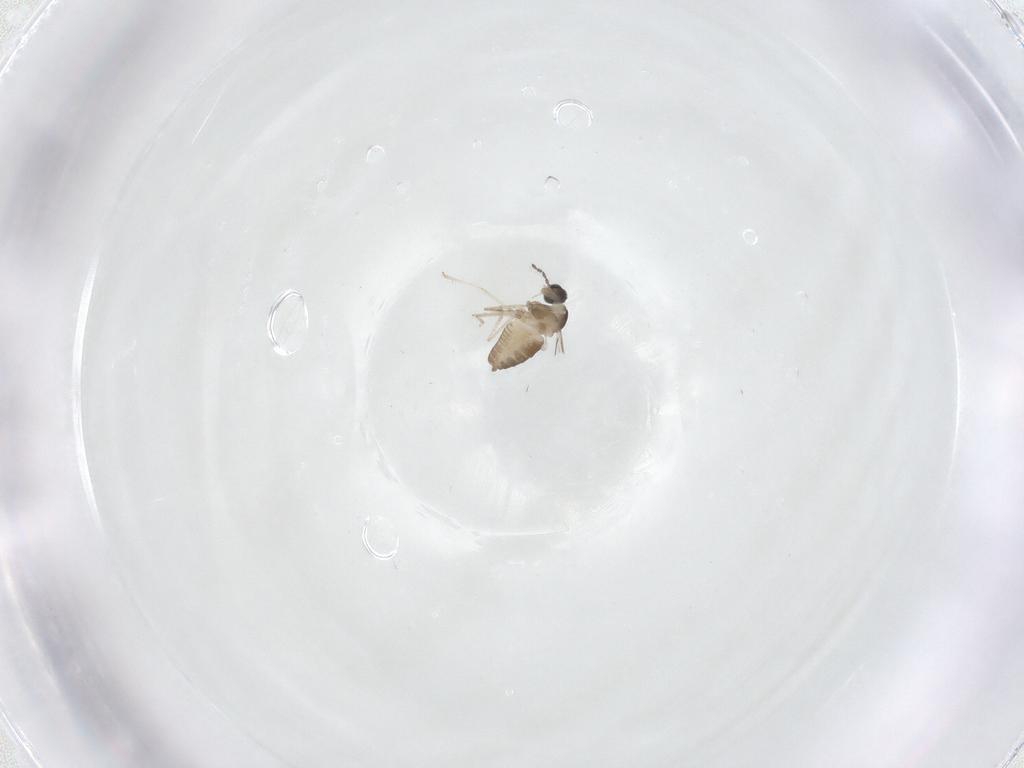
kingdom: Animalia
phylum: Arthropoda
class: Insecta
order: Diptera
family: Cecidomyiidae
